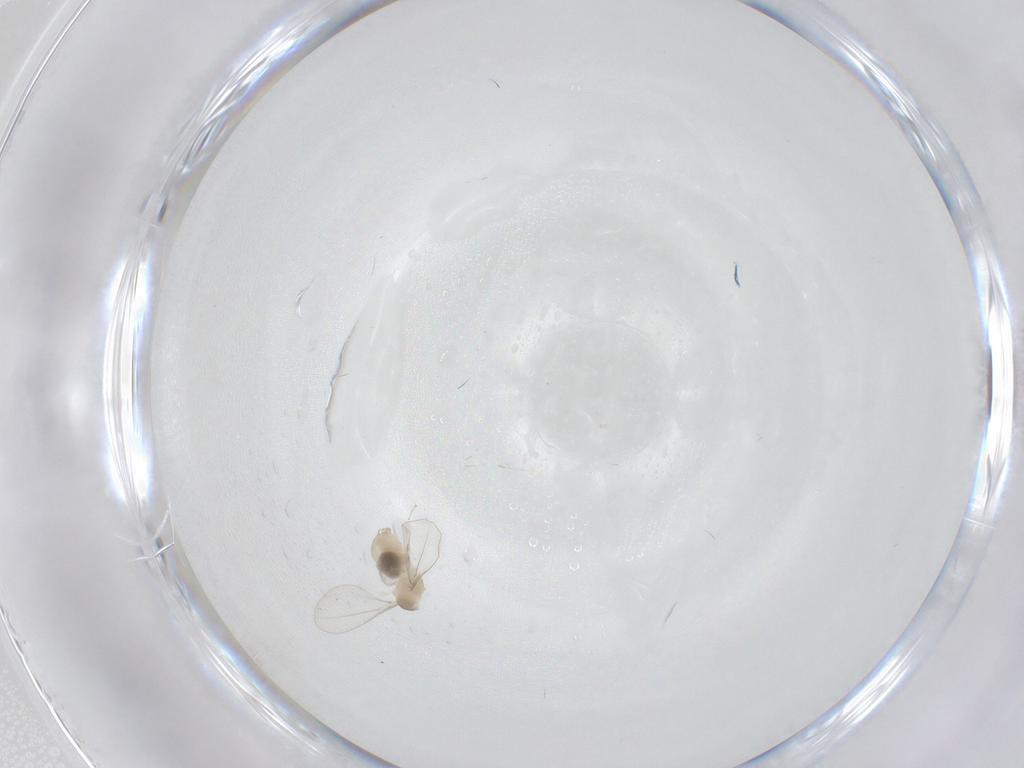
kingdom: Animalia
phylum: Arthropoda
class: Insecta
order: Diptera
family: Cecidomyiidae
